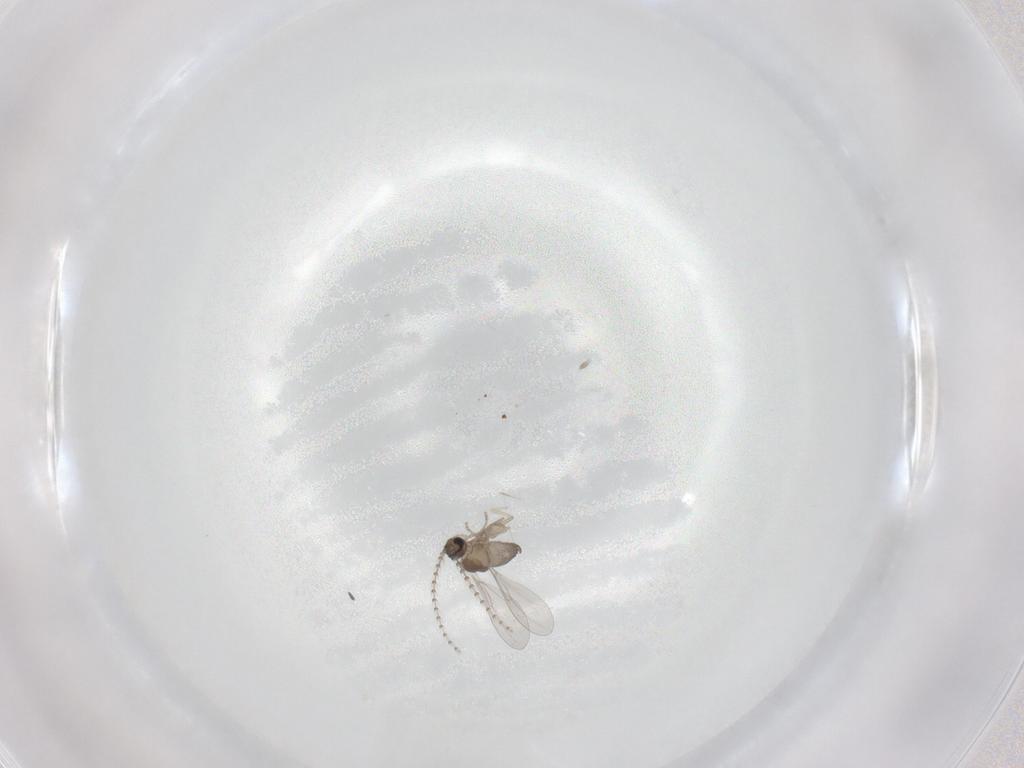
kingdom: Animalia
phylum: Arthropoda
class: Insecta
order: Diptera
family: Cecidomyiidae
